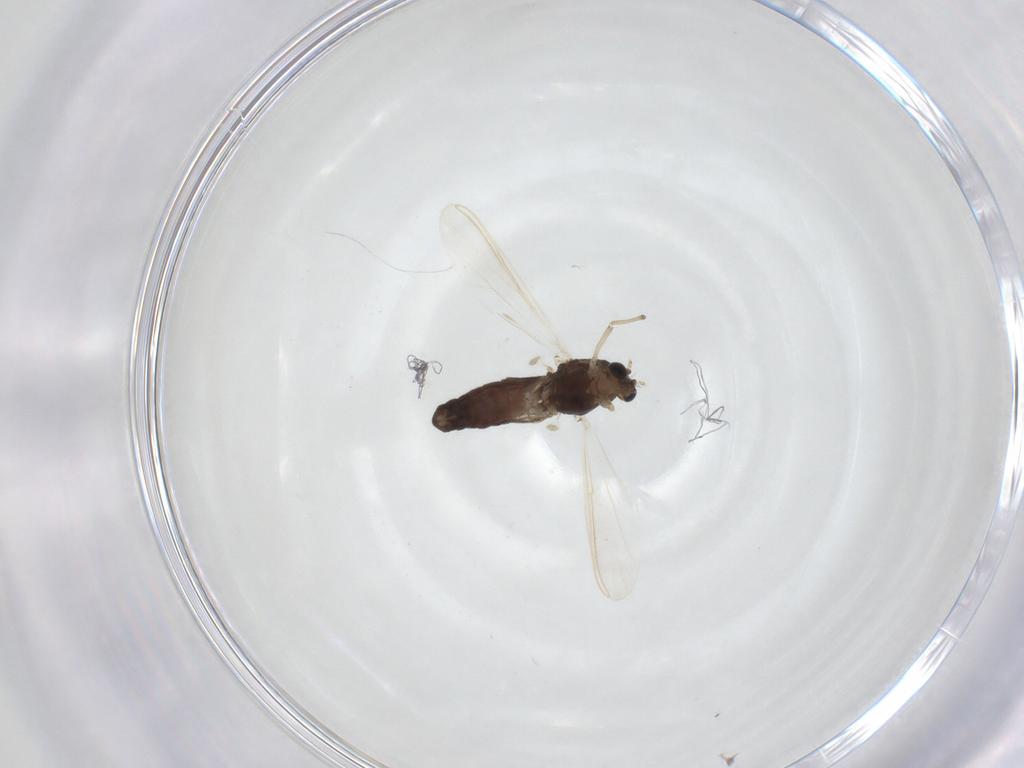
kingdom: Animalia
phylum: Arthropoda
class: Insecta
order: Diptera
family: Chironomidae
